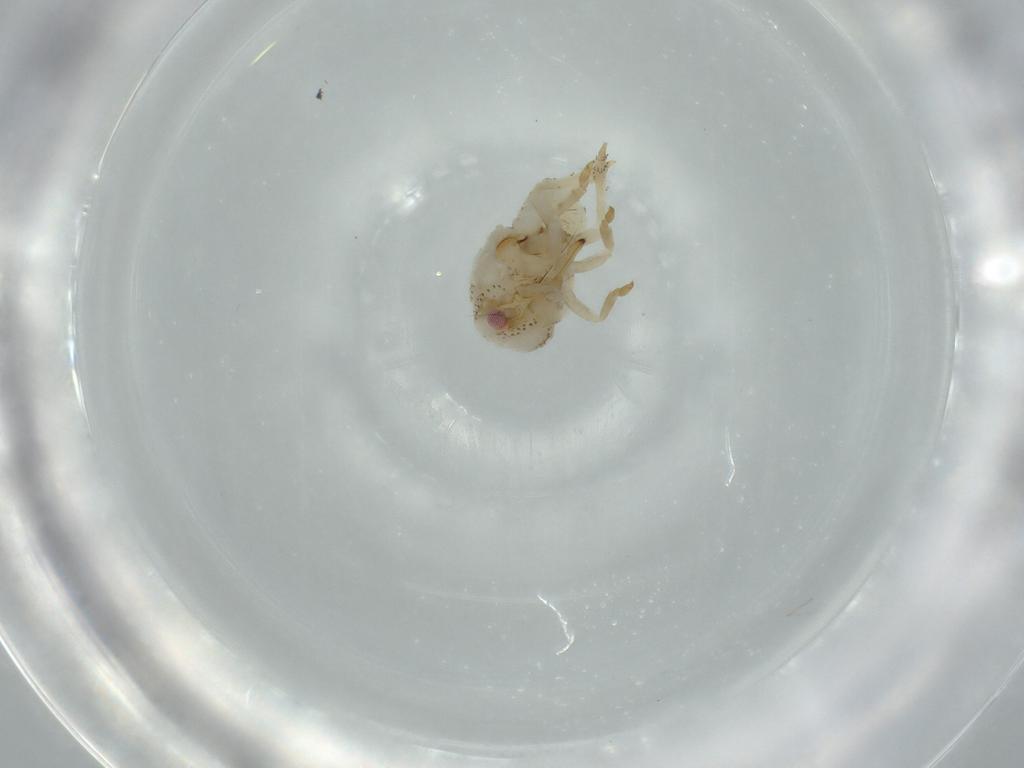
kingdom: Animalia
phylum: Arthropoda
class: Insecta
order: Hemiptera
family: Acanaloniidae
